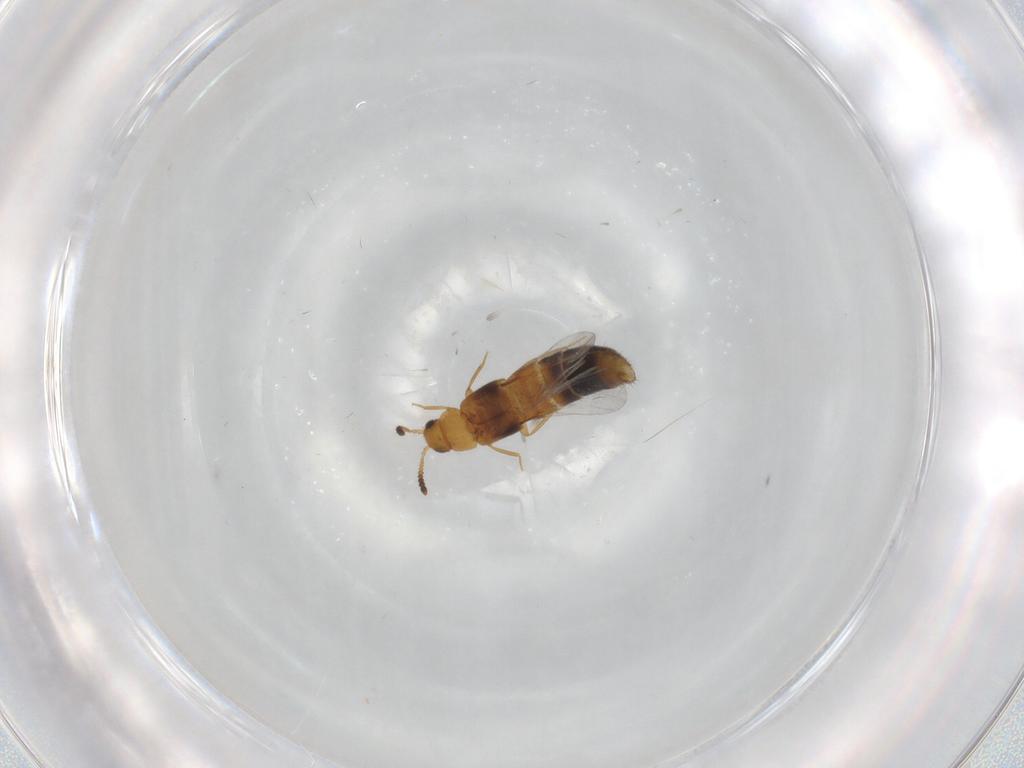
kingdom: Animalia
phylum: Arthropoda
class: Insecta
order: Coleoptera
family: Staphylinidae
